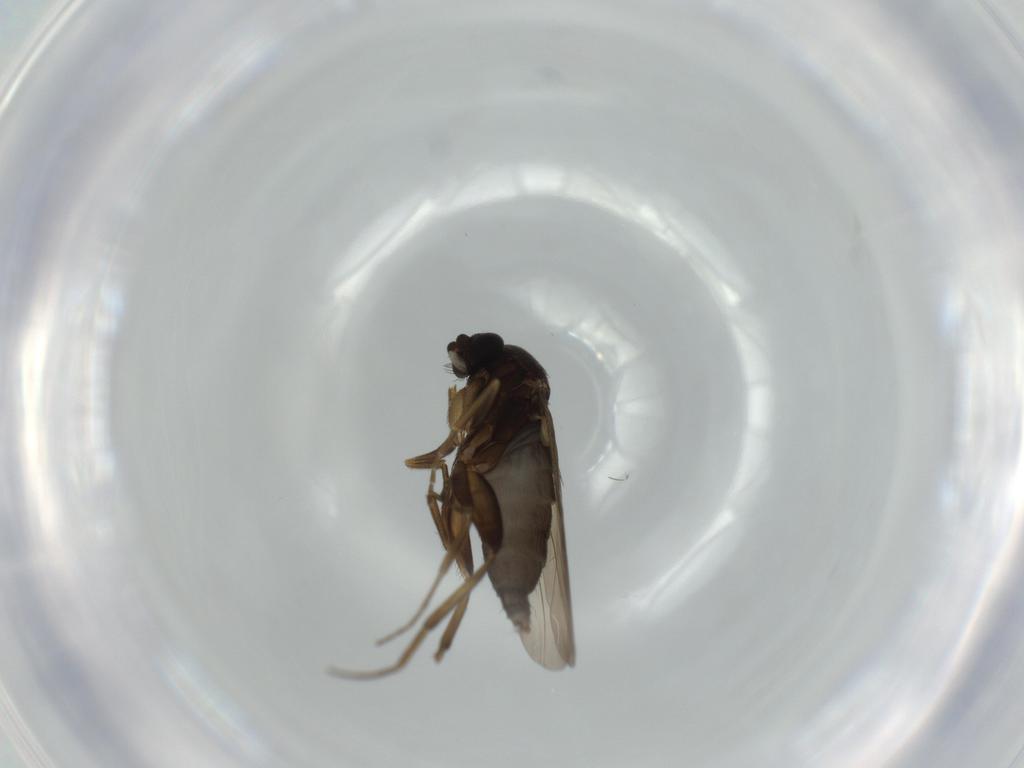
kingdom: Animalia
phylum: Arthropoda
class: Insecta
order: Diptera
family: Phoridae
